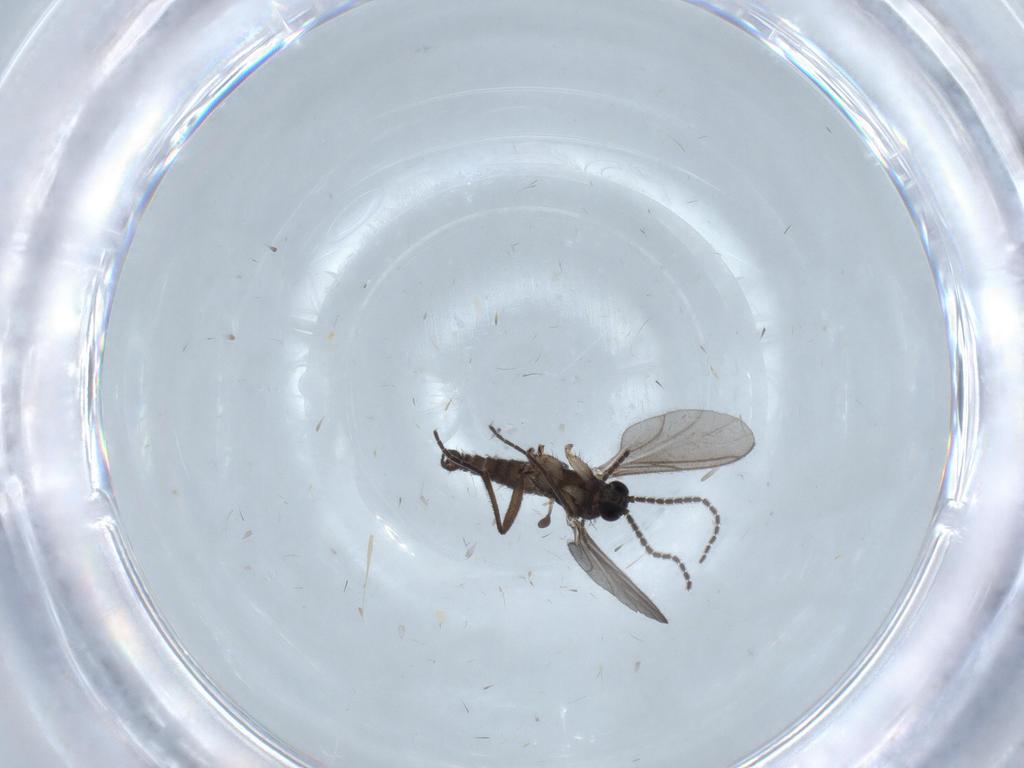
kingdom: Animalia
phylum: Arthropoda
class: Insecta
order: Diptera
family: Sciaridae
